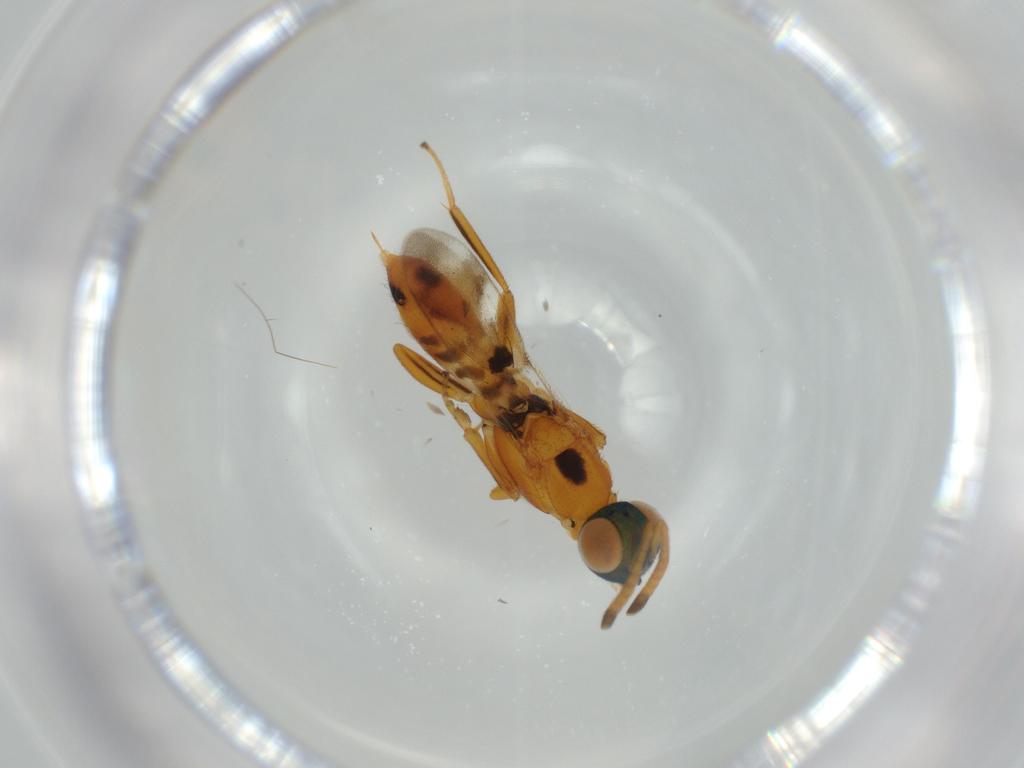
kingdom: Animalia
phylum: Arthropoda
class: Insecta
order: Hymenoptera
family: Eupelmidae
